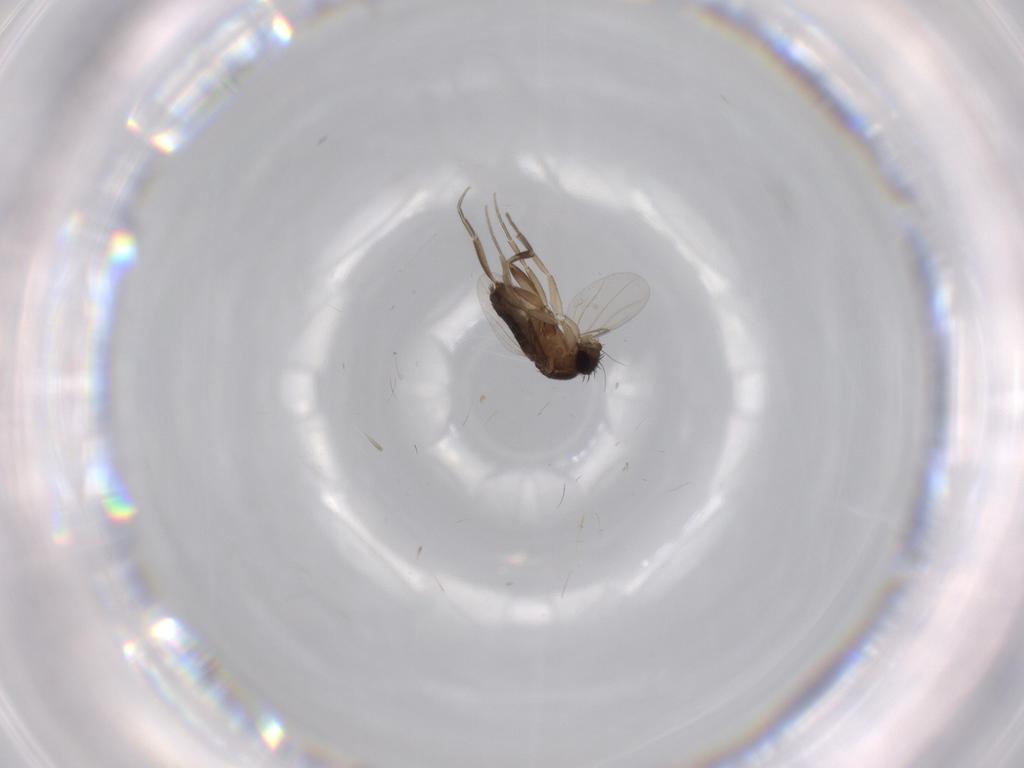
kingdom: Animalia
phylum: Arthropoda
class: Insecta
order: Diptera
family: Phoridae
